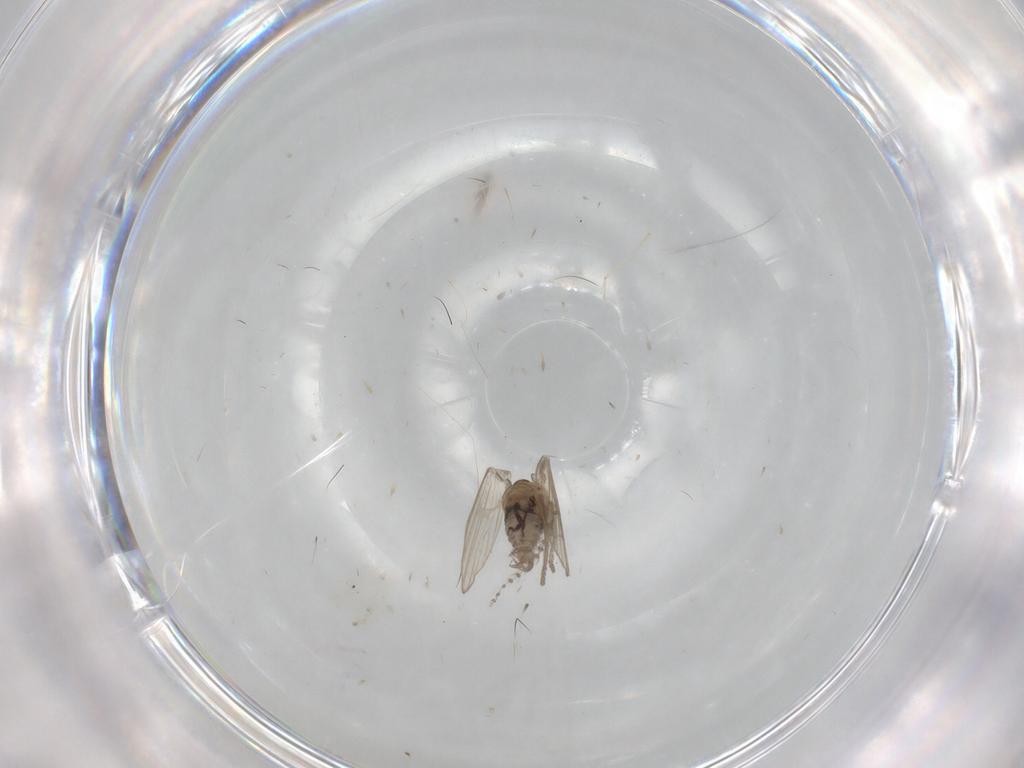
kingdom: Animalia
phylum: Arthropoda
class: Insecta
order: Diptera
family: Psychodidae
